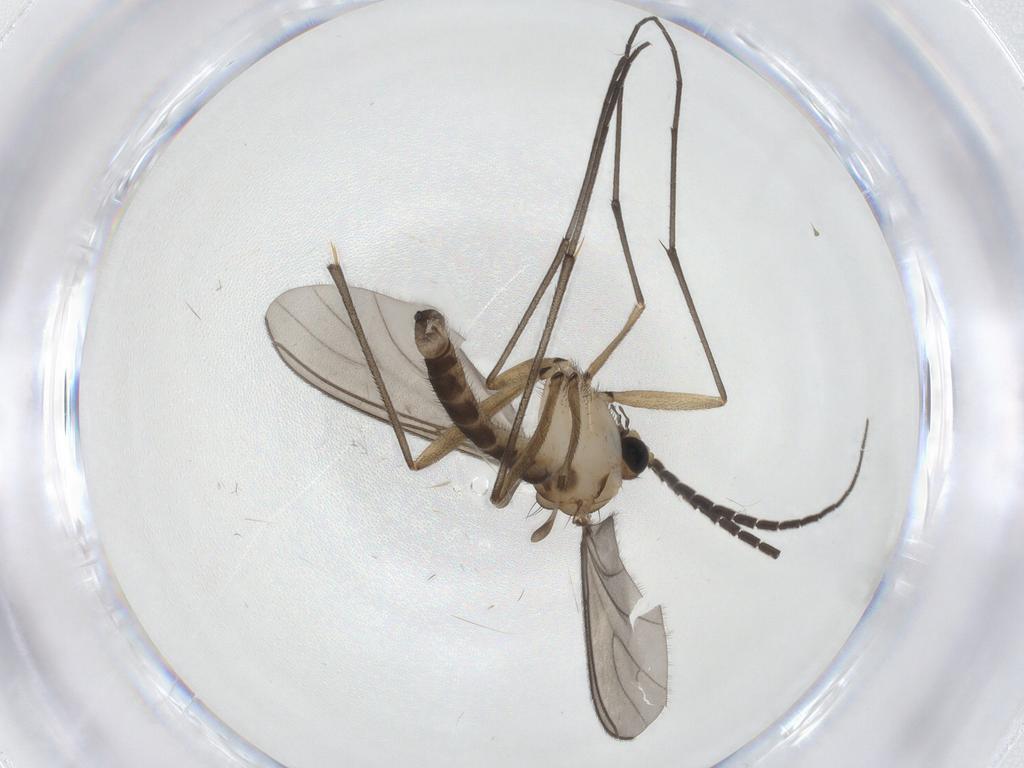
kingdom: Animalia
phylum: Arthropoda
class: Insecta
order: Diptera
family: Sciaridae
